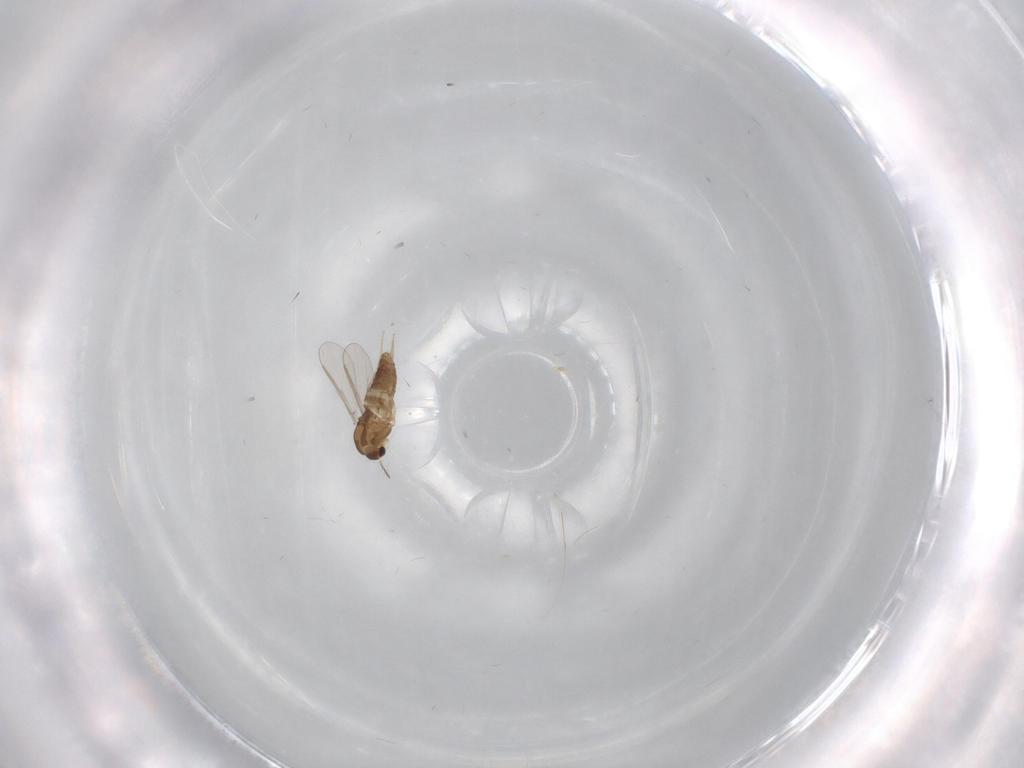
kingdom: Animalia
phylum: Arthropoda
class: Insecta
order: Diptera
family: Chironomidae
